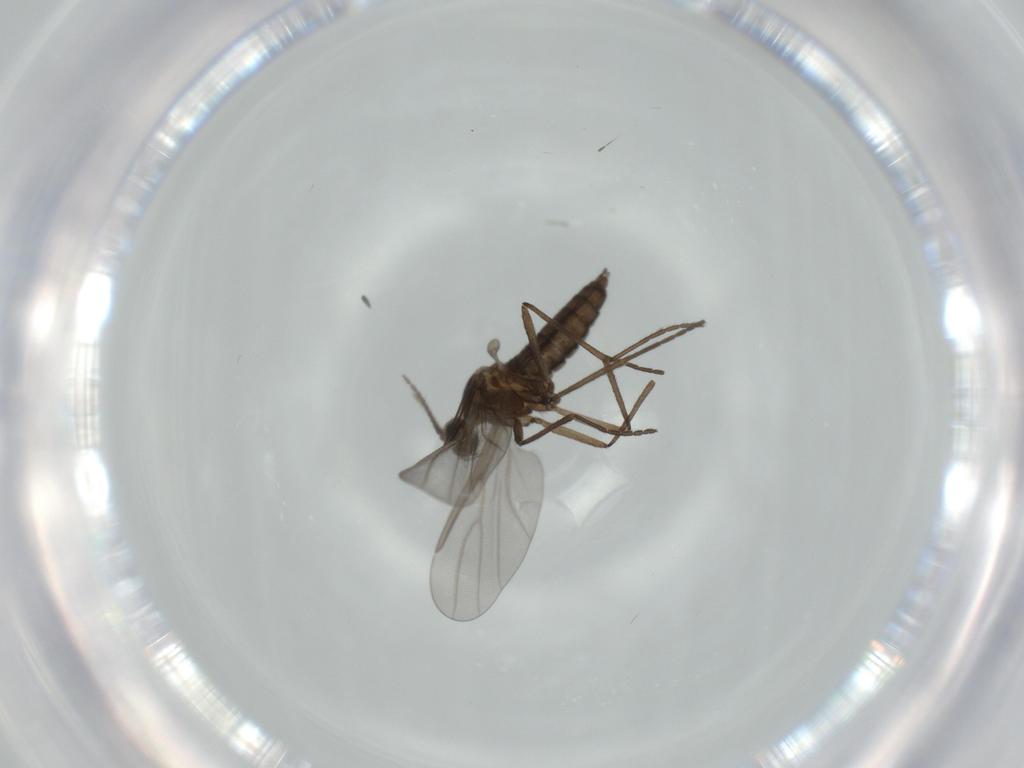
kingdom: Animalia
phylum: Arthropoda
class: Insecta
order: Diptera
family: Cecidomyiidae
